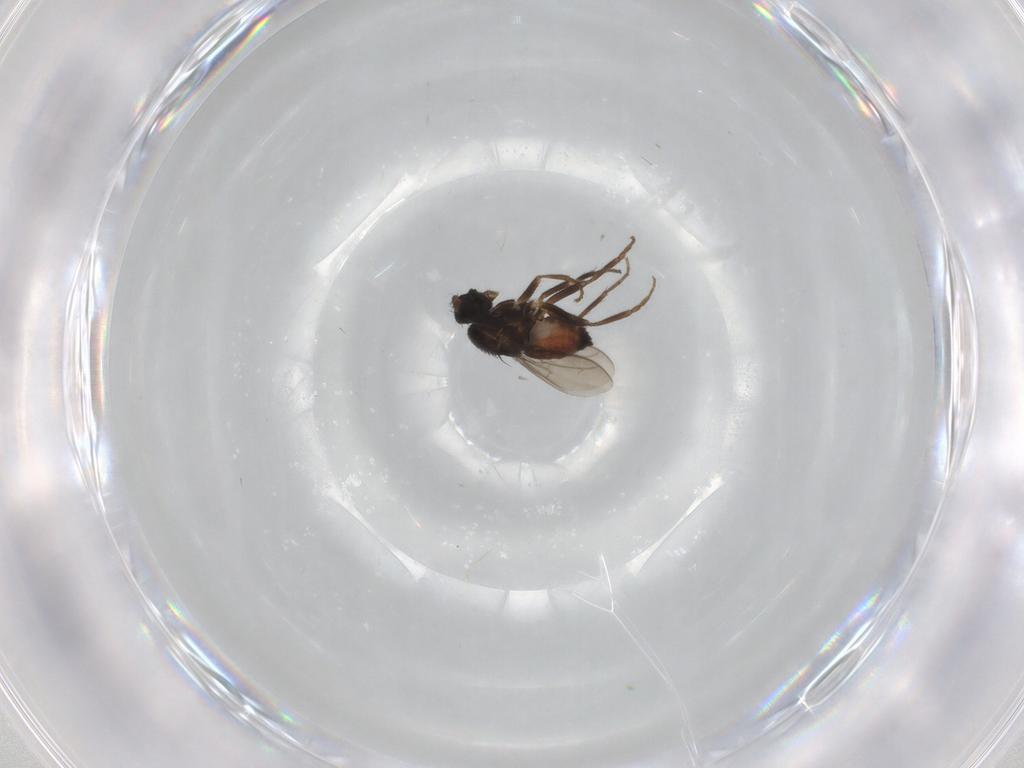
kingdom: Animalia
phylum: Arthropoda
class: Insecta
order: Diptera
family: Sphaeroceridae
